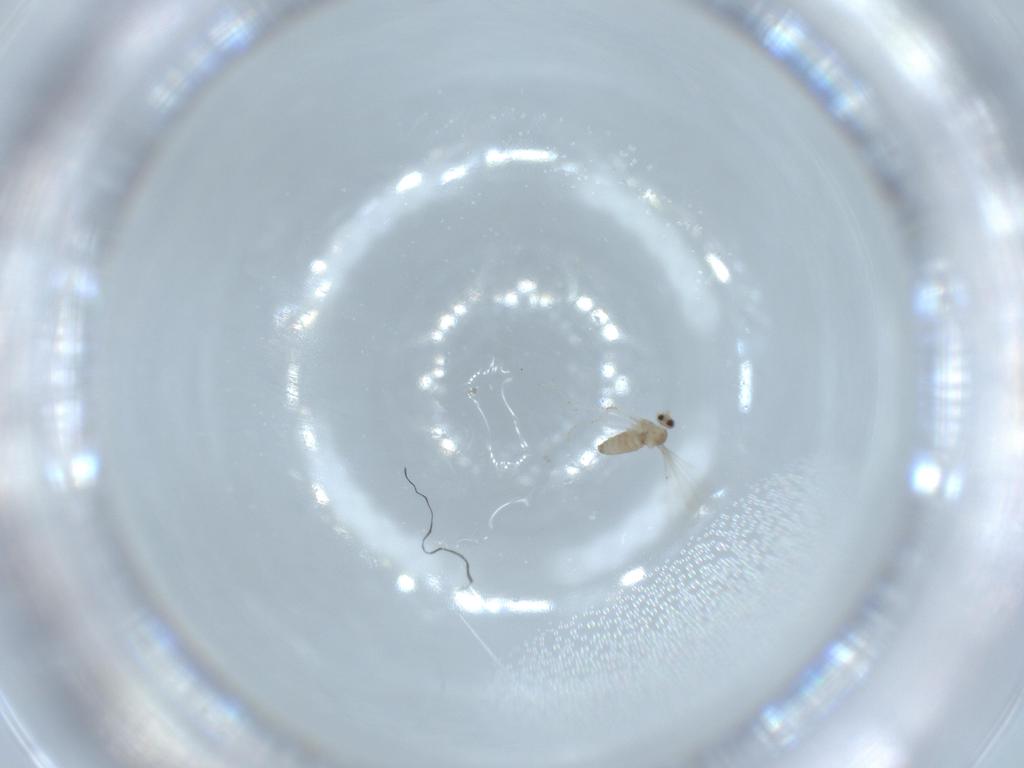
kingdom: Animalia
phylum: Arthropoda
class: Insecta
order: Diptera
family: Cecidomyiidae
